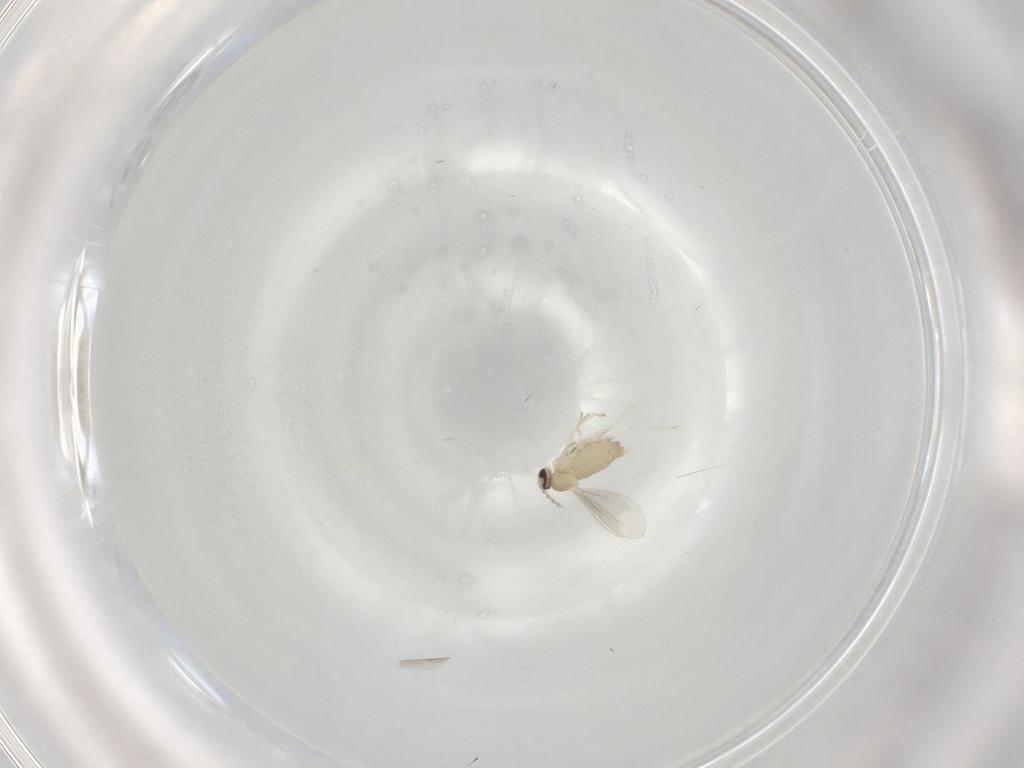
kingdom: Animalia
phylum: Arthropoda
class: Insecta
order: Diptera
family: Cecidomyiidae
